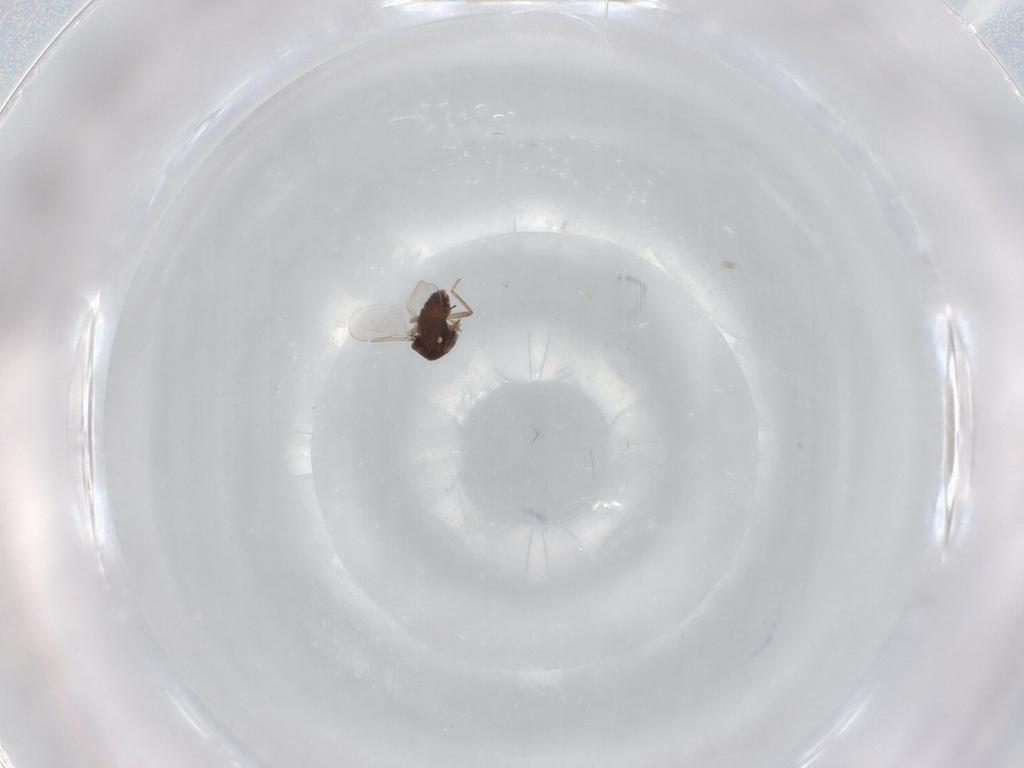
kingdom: Animalia
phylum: Arthropoda
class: Insecta
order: Diptera
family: Ceratopogonidae
